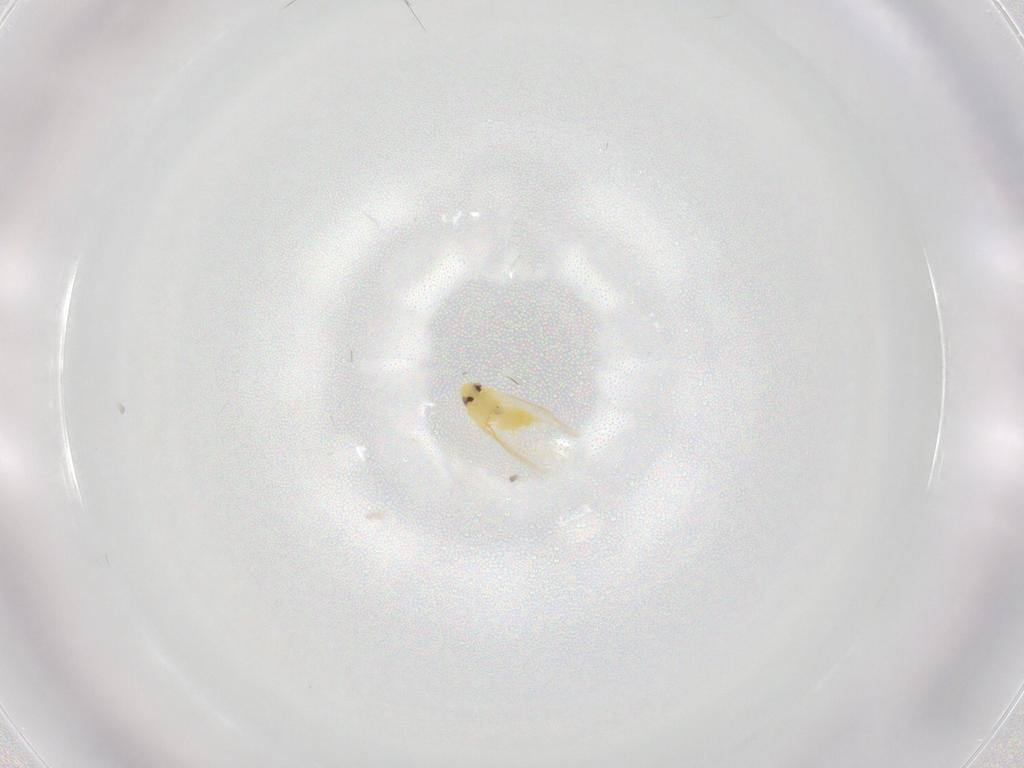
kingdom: Animalia
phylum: Arthropoda
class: Insecta
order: Hemiptera
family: Aleyrodidae
